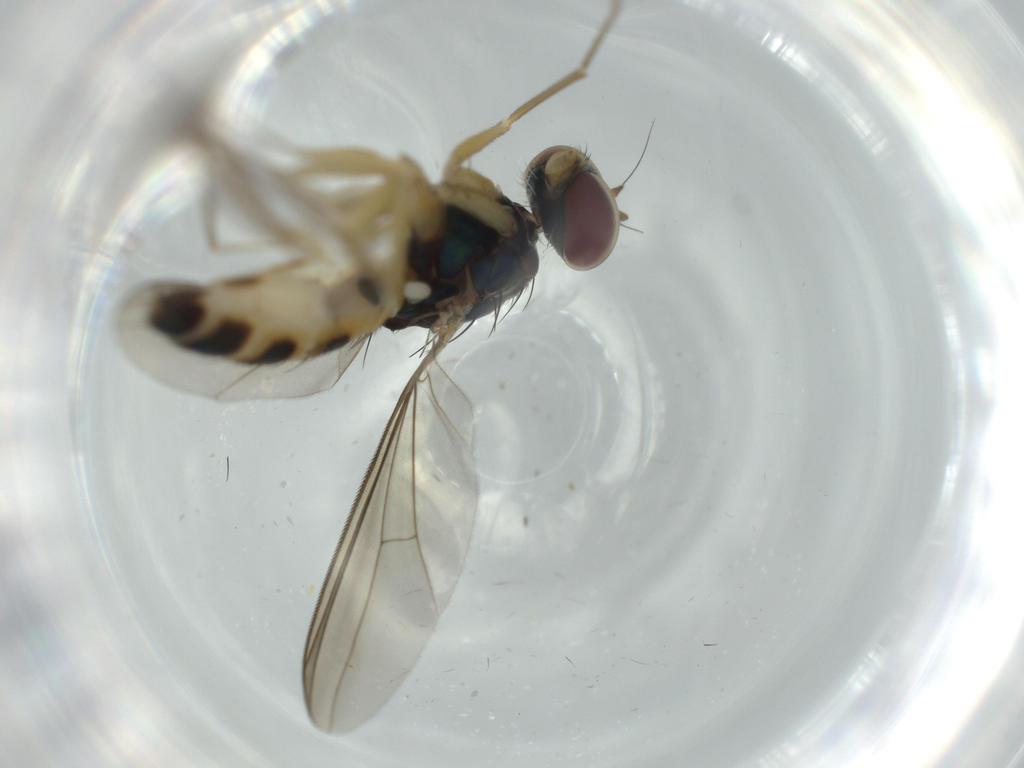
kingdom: Animalia
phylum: Arthropoda
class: Insecta
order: Diptera
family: Dolichopodidae
